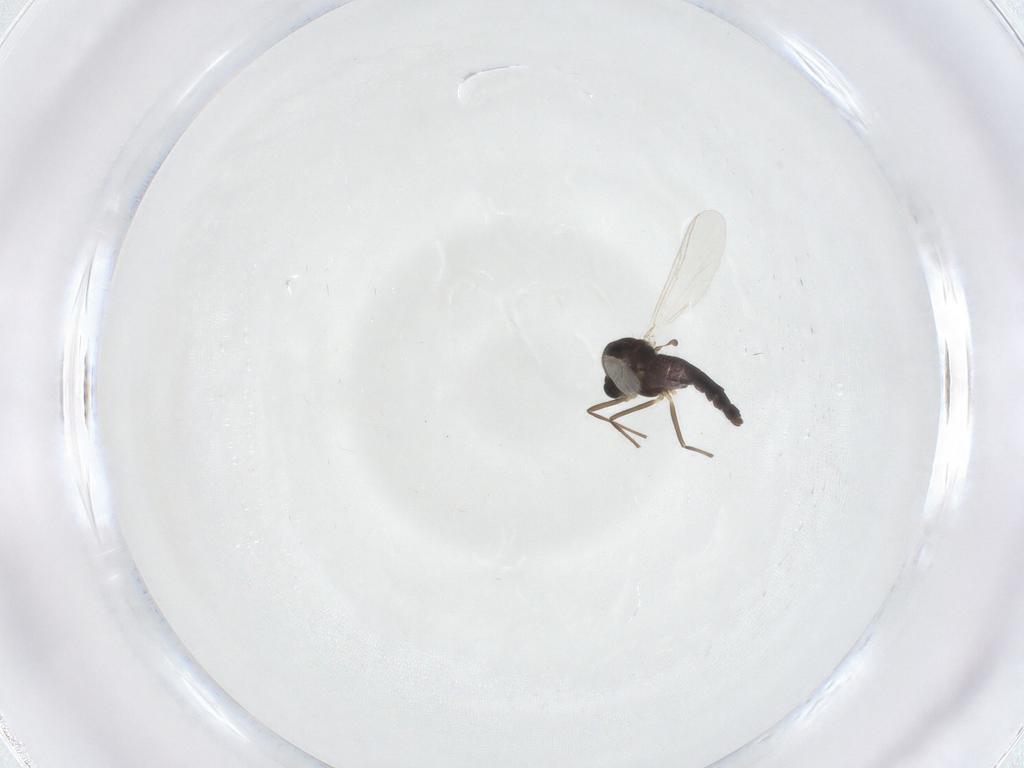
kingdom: Animalia
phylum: Arthropoda
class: Insecta
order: Diptera
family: Chironomidae
